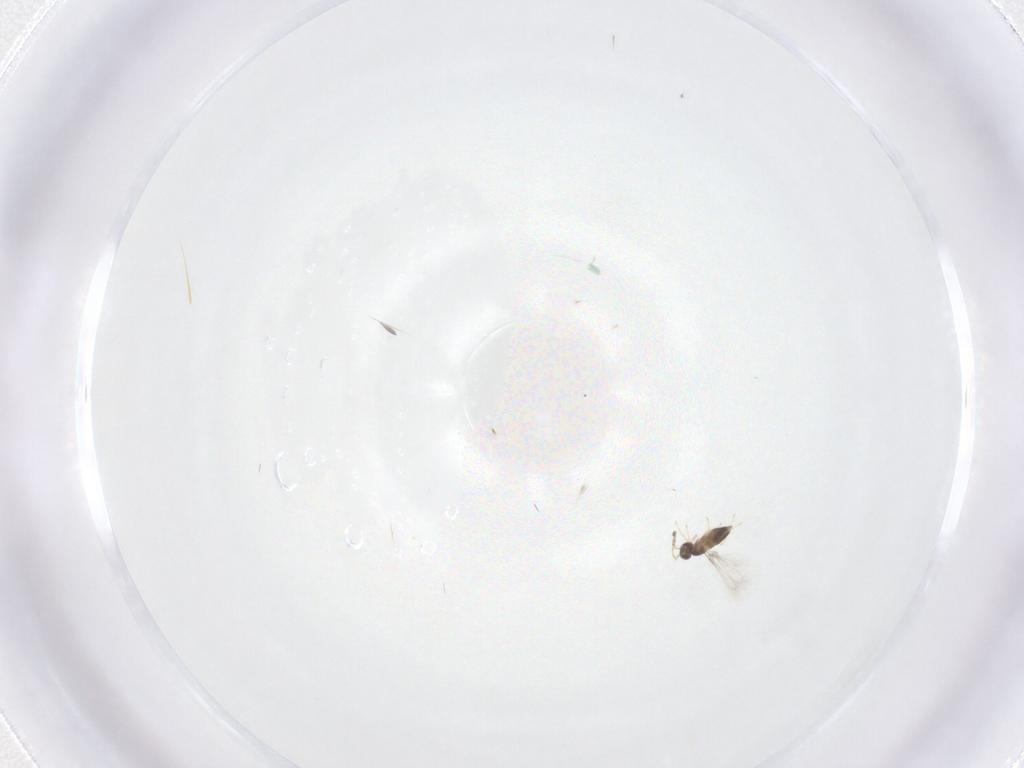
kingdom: Animalia
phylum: Arthropoda
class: Insecta
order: Hymenoptera
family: Mymaridae
